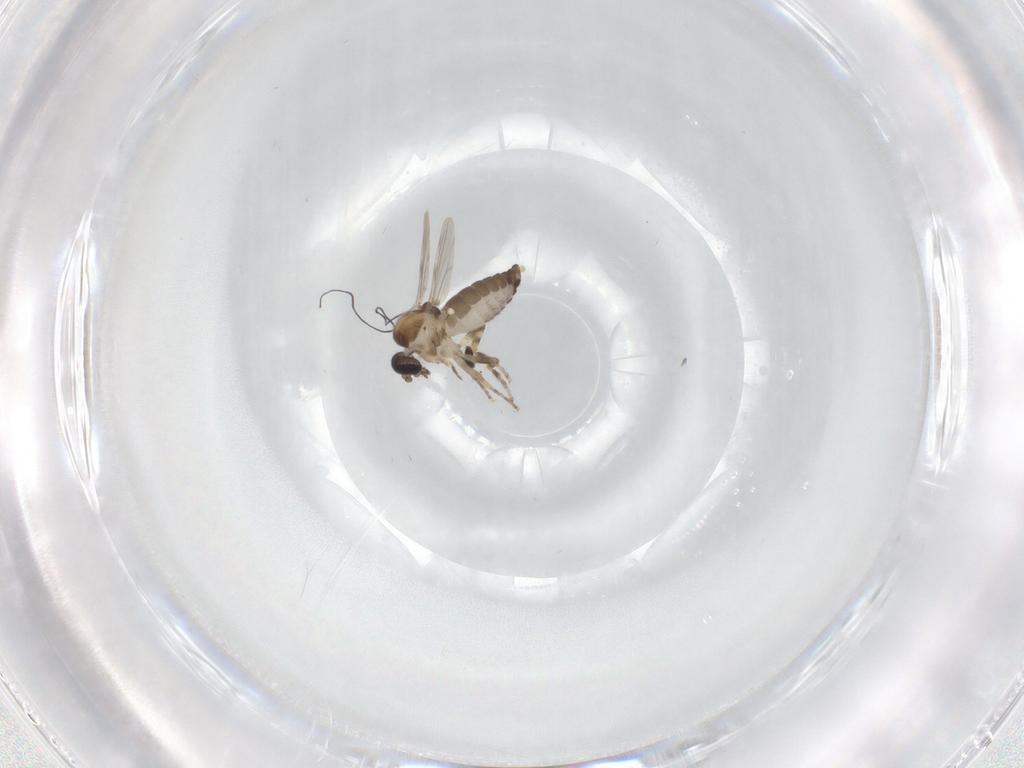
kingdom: Animalia
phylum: Arthropoda
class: Insecta
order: Diptera
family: Sphaeroceridae
